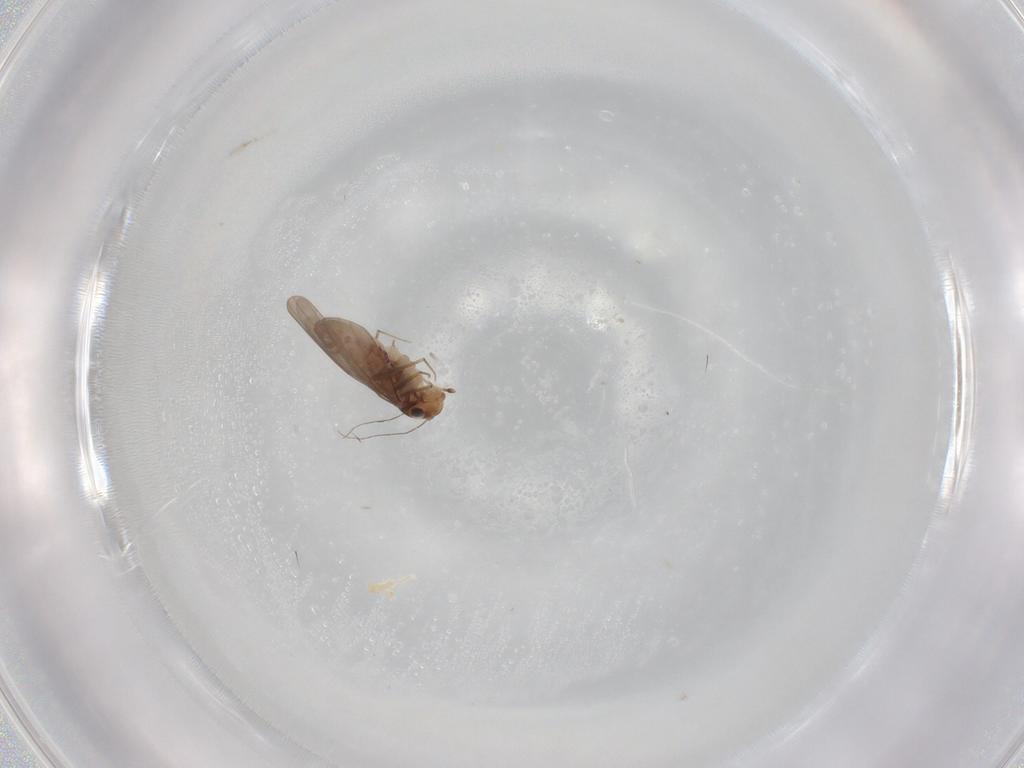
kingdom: Animalia
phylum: Arthropoda
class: Insecta
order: Psocodea
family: Lepidopsocidae
